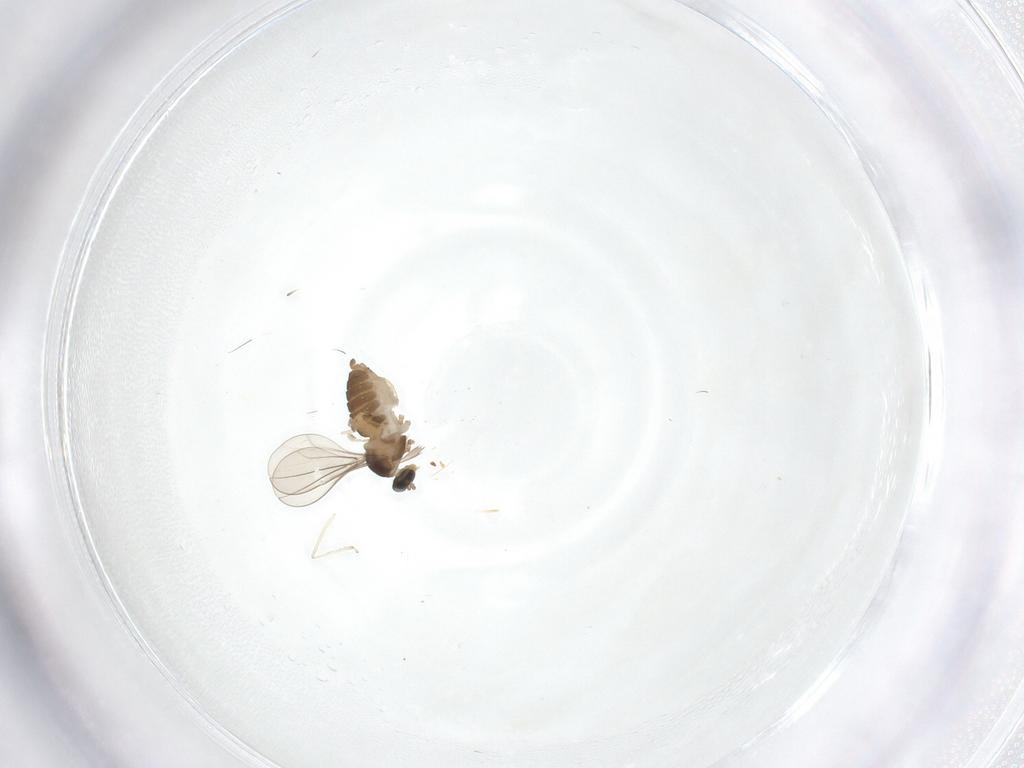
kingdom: Animalia
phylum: Arthropoda
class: Insecta
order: Diptera
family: Cecidomyiidae
